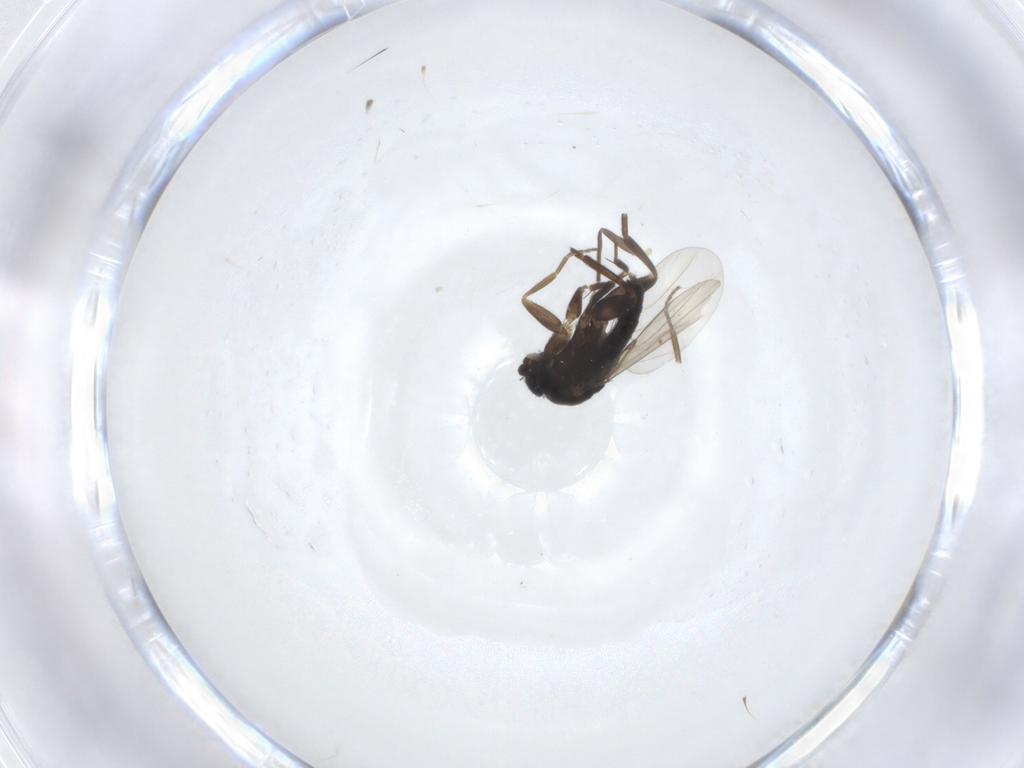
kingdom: Animalia
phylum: Arthropoda
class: Insecta
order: Diptera
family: Phoridae
